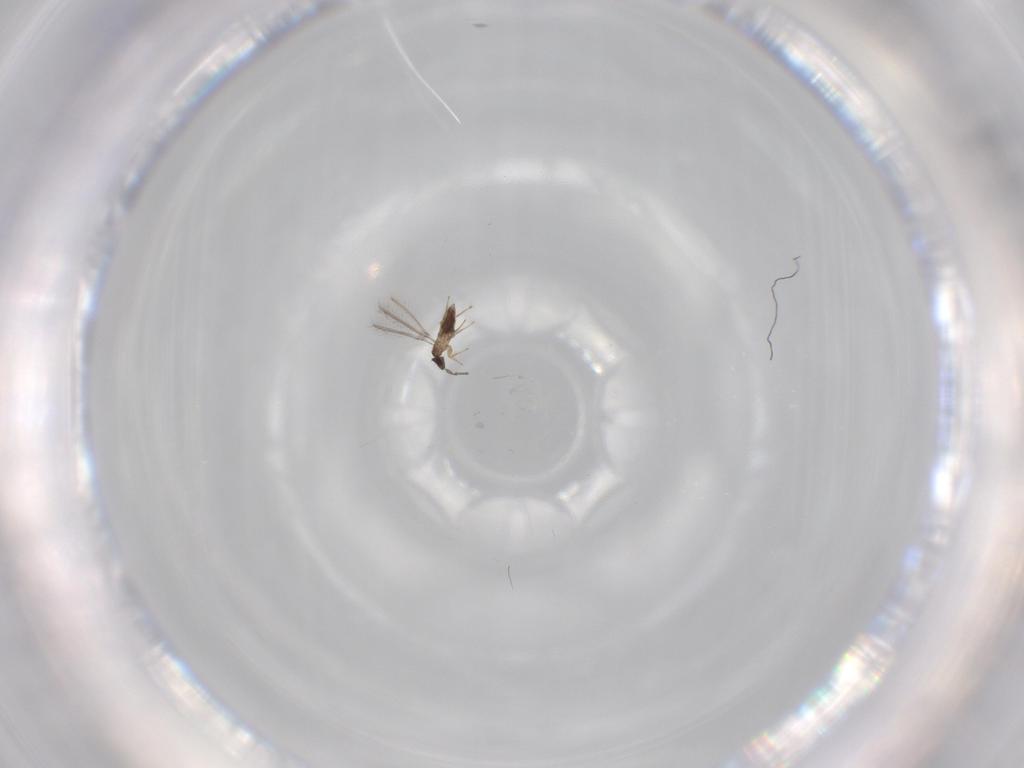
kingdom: Animalia
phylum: Arthropoda
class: Insecta
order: Hymenoptera
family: Mymaridae
